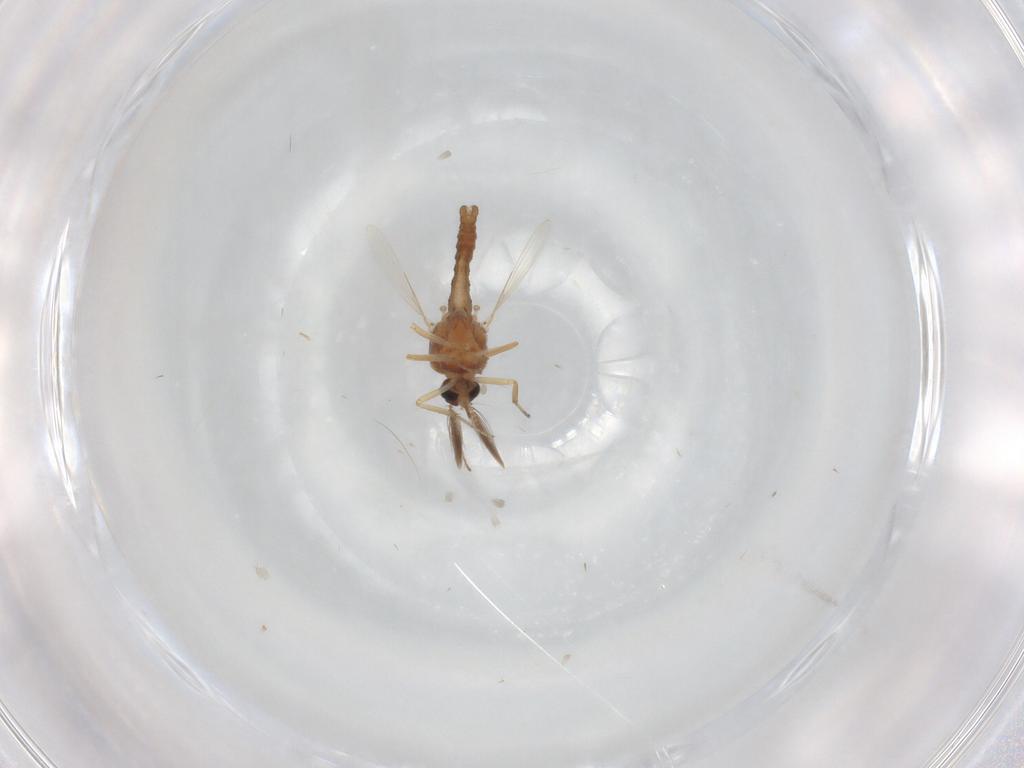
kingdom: Animalia
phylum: Arthropoda
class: Insecta
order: Diptera
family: Ceratopogonidae
